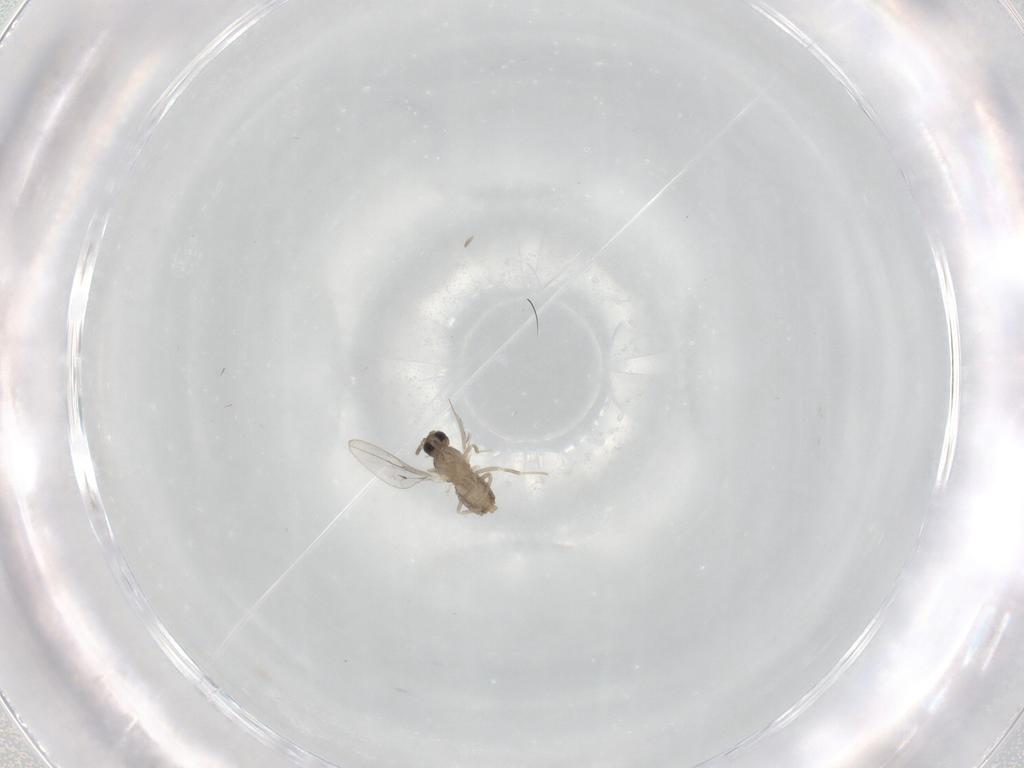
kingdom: Animalia
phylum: Arthropoda
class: Insecta
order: Diptera
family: Cecidomyiidae
